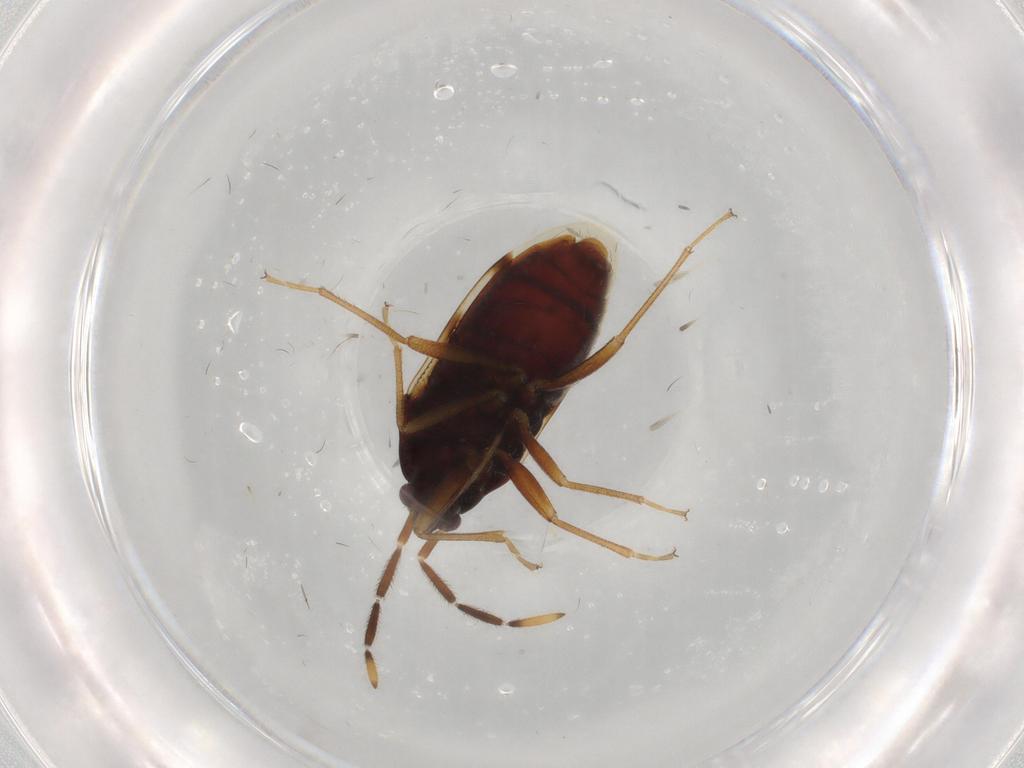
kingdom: Animalia
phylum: Arthropoda
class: Insecta
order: Hemiptera
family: Rhyparochromidae
